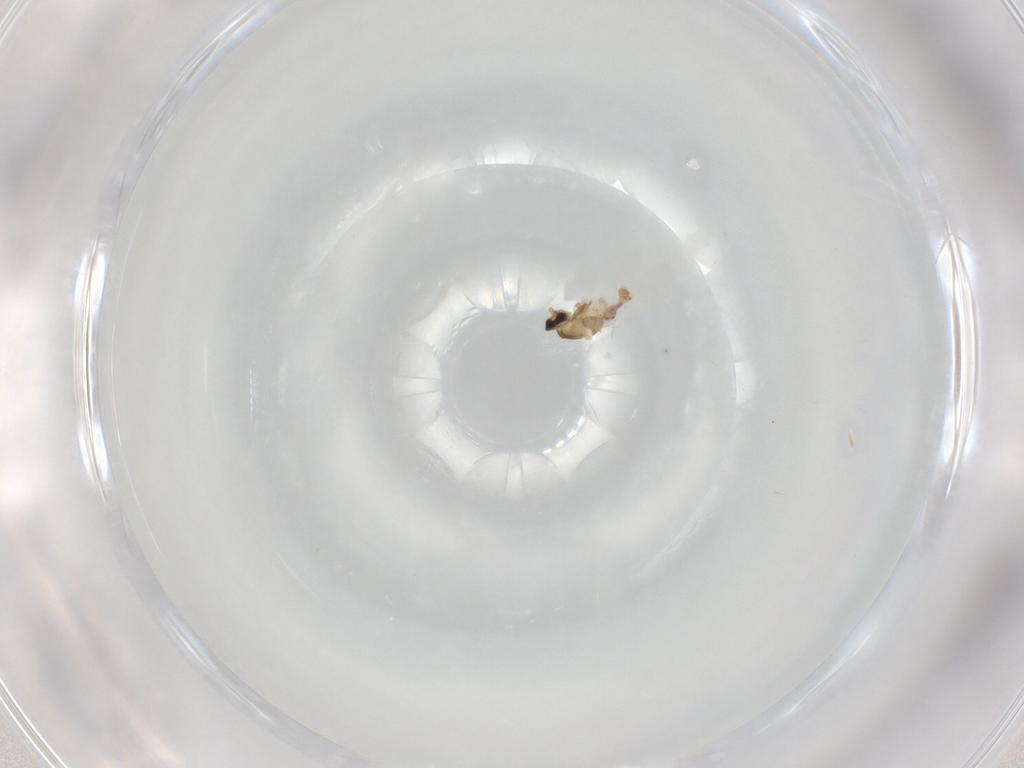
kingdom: Animalia
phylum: Arthropoda
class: Insecta
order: Diptera
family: Cecidomyiidae
